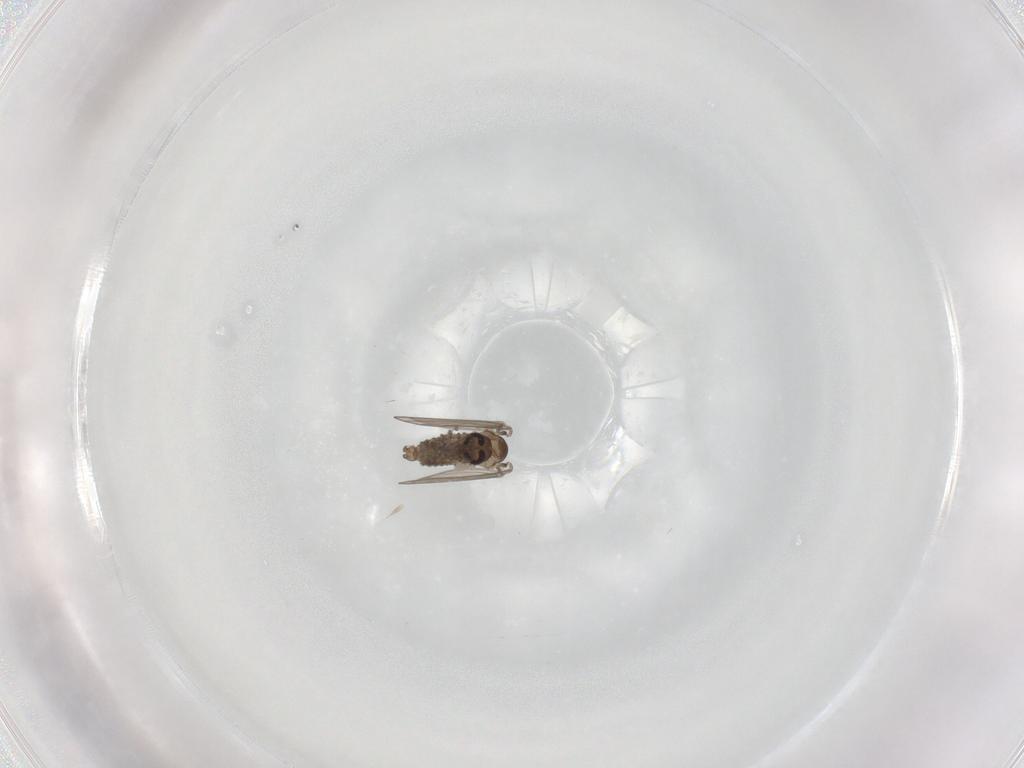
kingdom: Animalia
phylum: Arthropoda
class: Insecta
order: Diptera
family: Psychodidae
